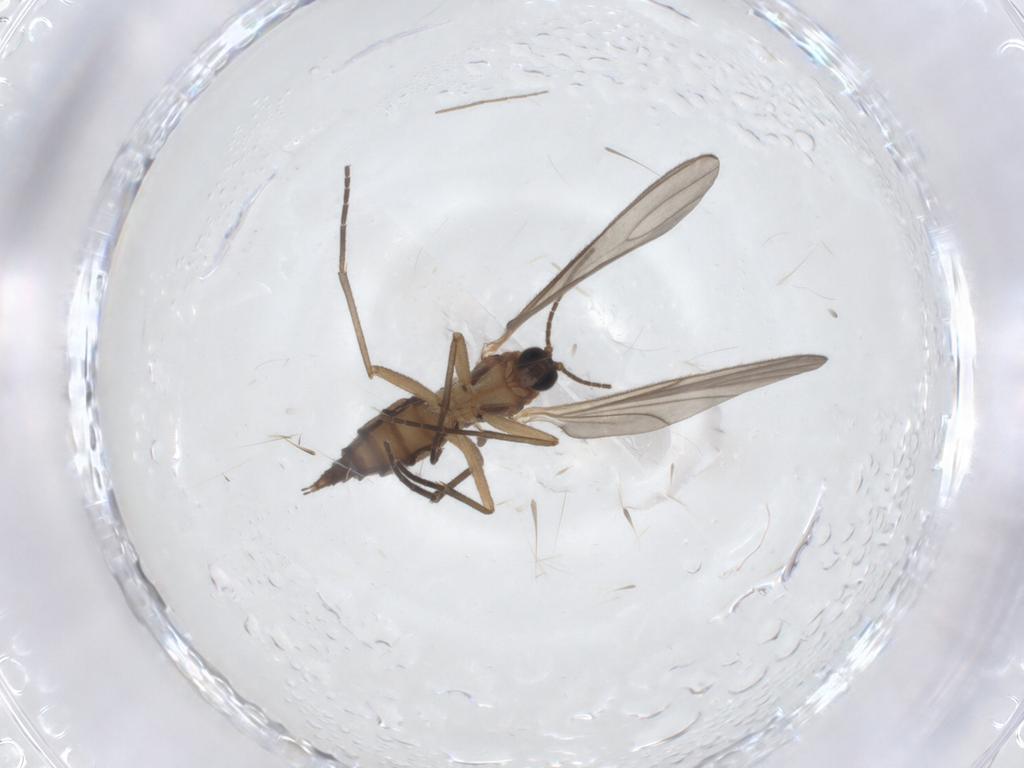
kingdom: Animalia
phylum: Arthropoda
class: Insecta
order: Diptera
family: Sciaridae
